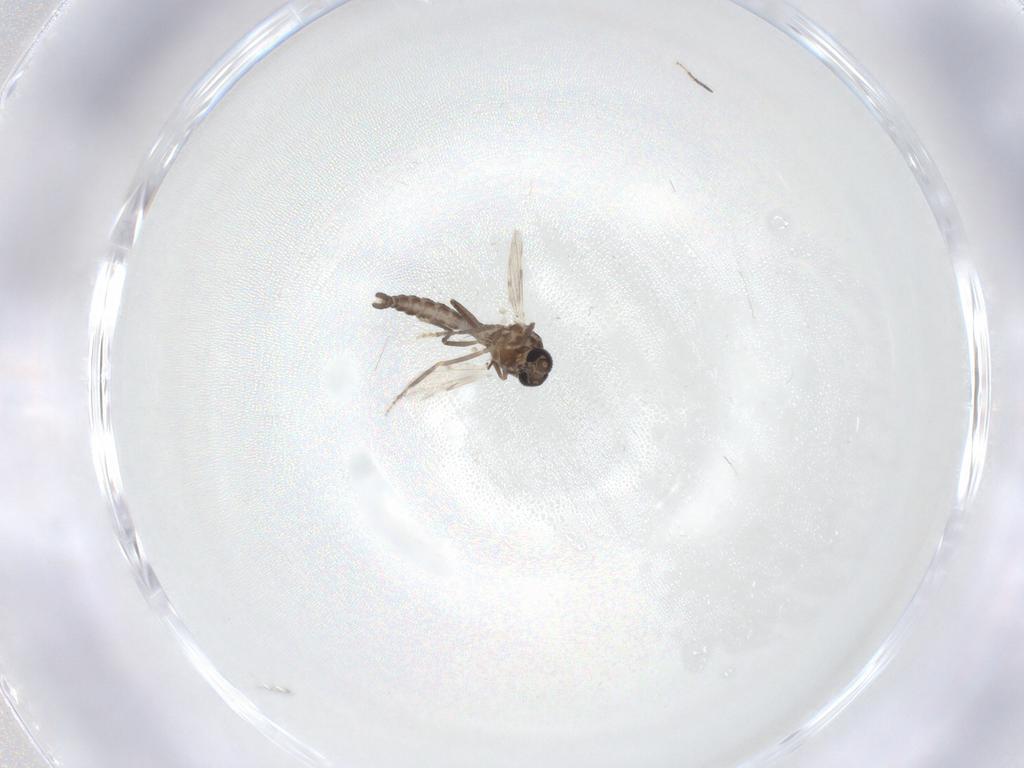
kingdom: Animalia
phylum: Arthropoda
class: Insecta
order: Diptera
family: Ceratopogonidae
